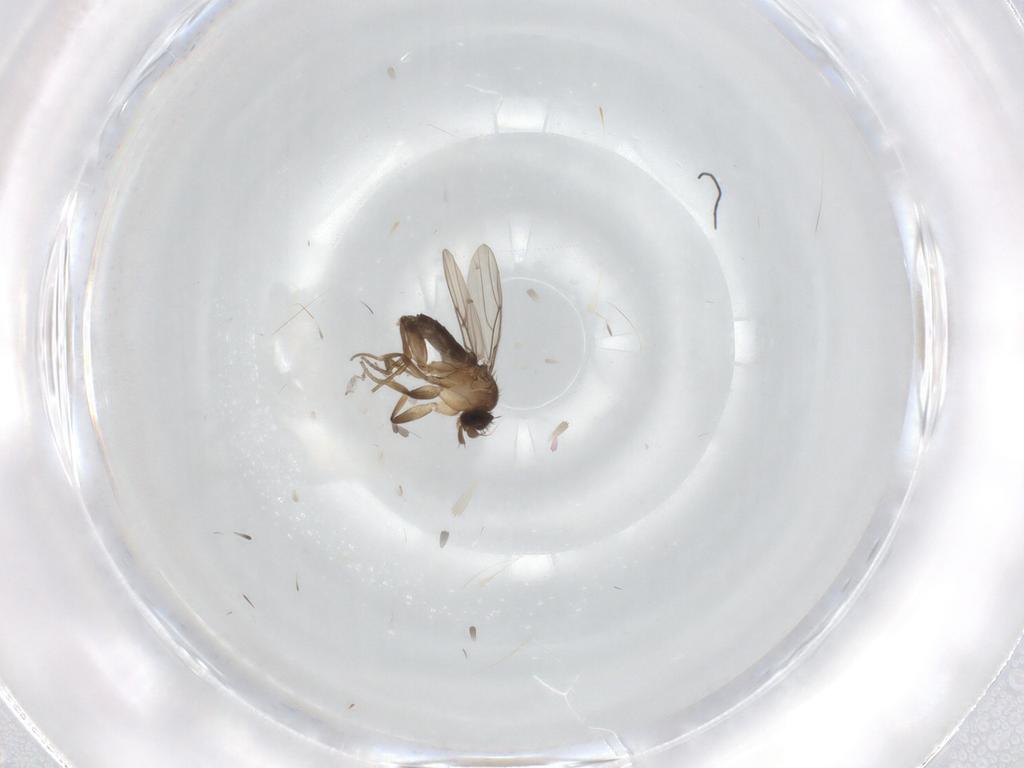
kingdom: Animalia
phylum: Arthropoda
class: Insecta
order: Diptera
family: Phoridae
